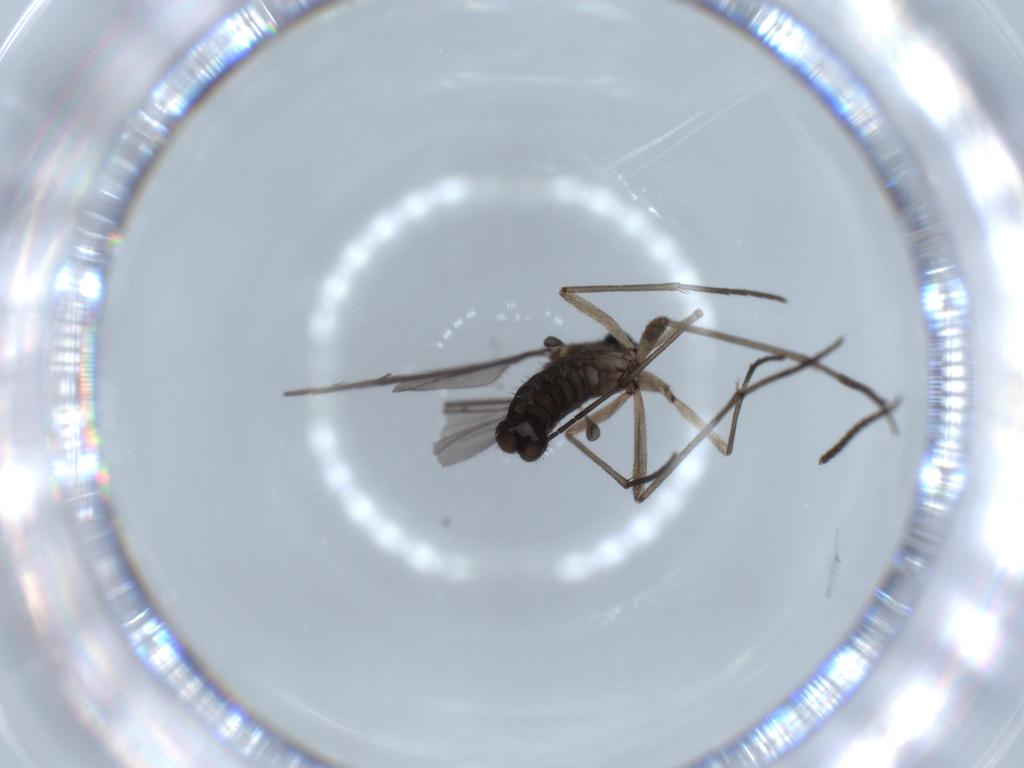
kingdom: Animalia
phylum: Arthropoda
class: Insecta
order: Diptera
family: Sciaridae
